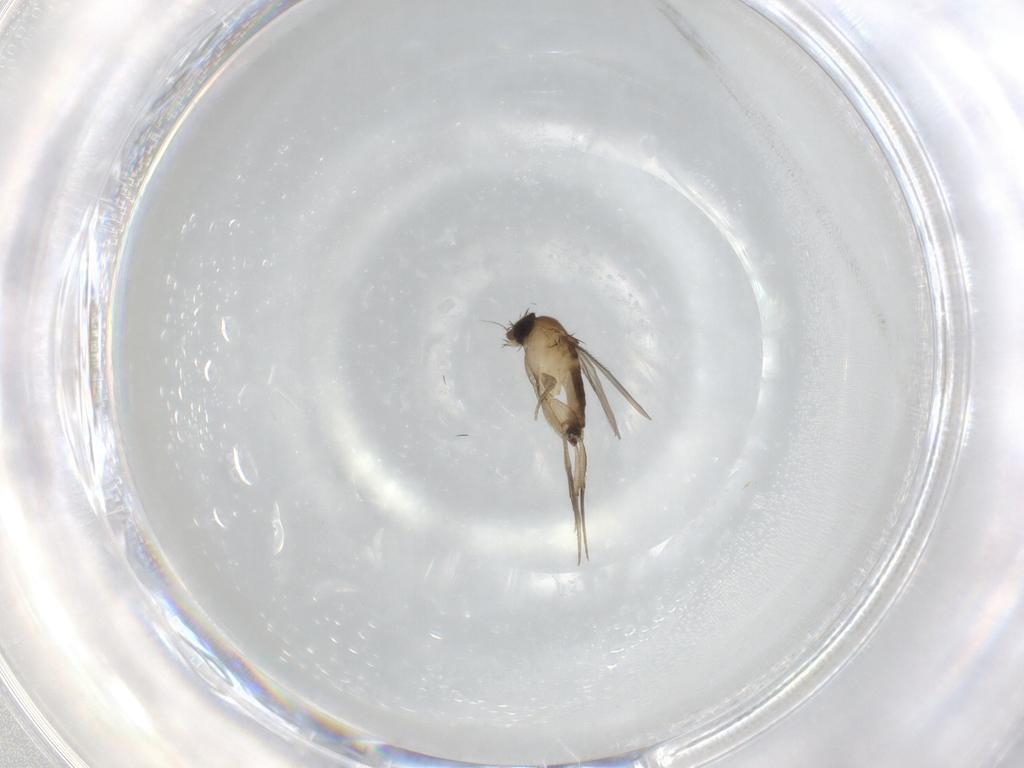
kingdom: Animalia
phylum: Arthropoda
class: Insecta
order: Diptera
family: Phoridae
